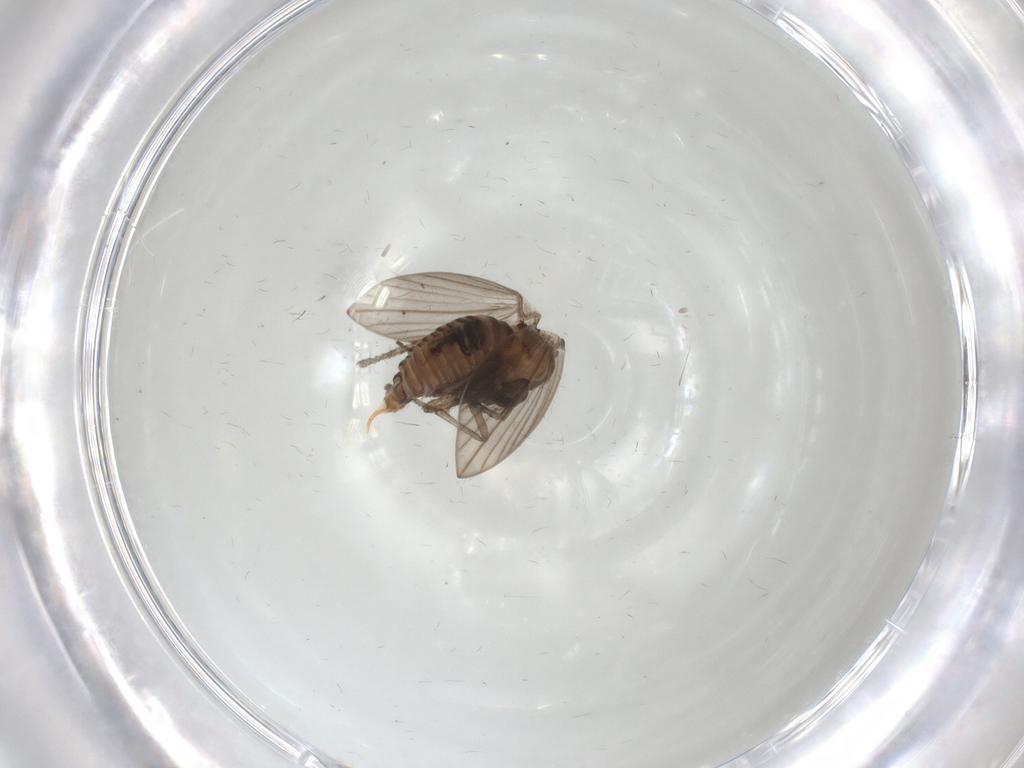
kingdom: Animalia
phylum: Arthropoda
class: Insecta
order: Diptera
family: Psychodidae
